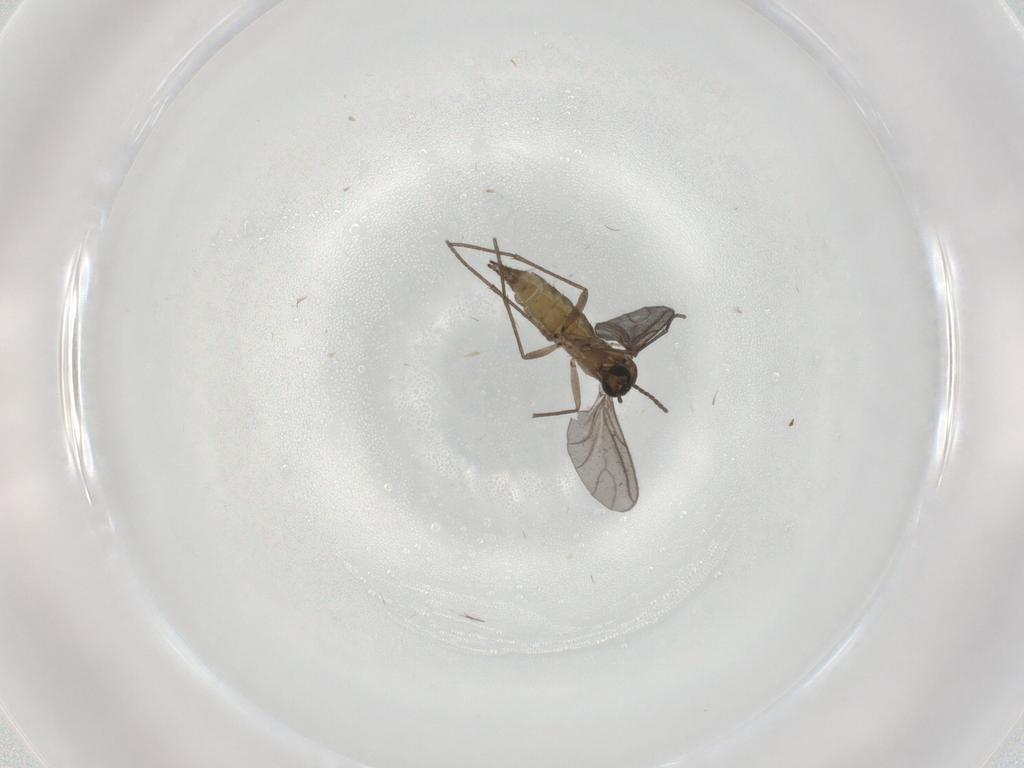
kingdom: Animalia
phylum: Arthropoda
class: Insecta
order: Diptera
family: Sciaridae
